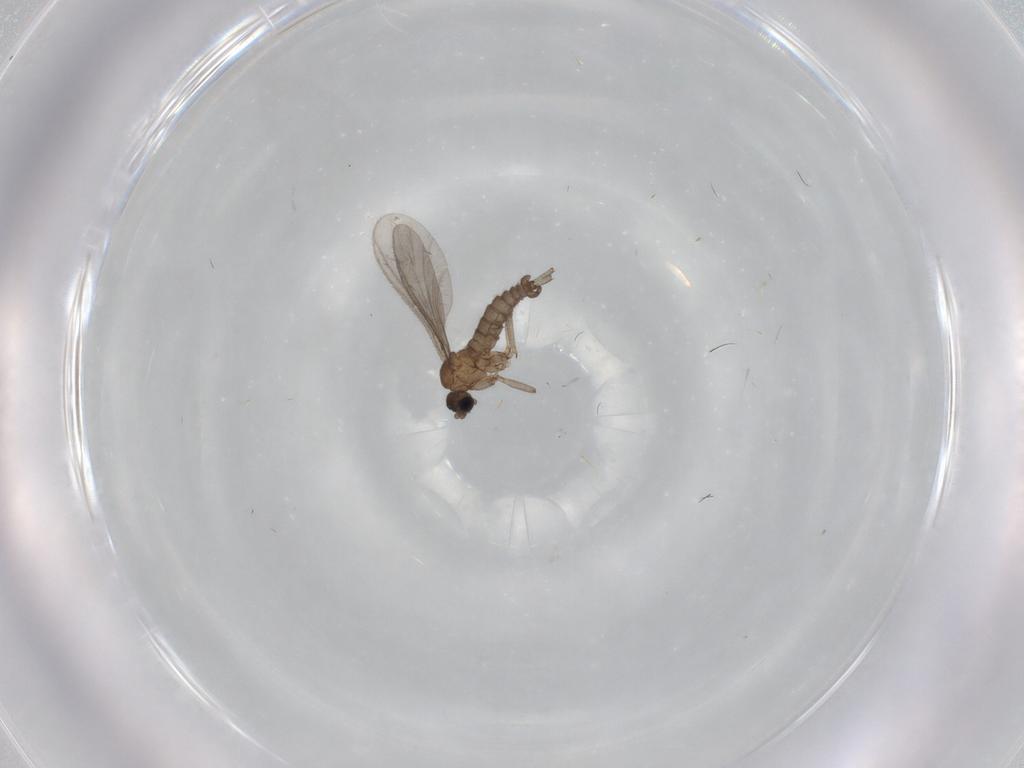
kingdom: Animalia
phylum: Arthropoda
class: Insecta
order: Diptera
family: Sciaridae
